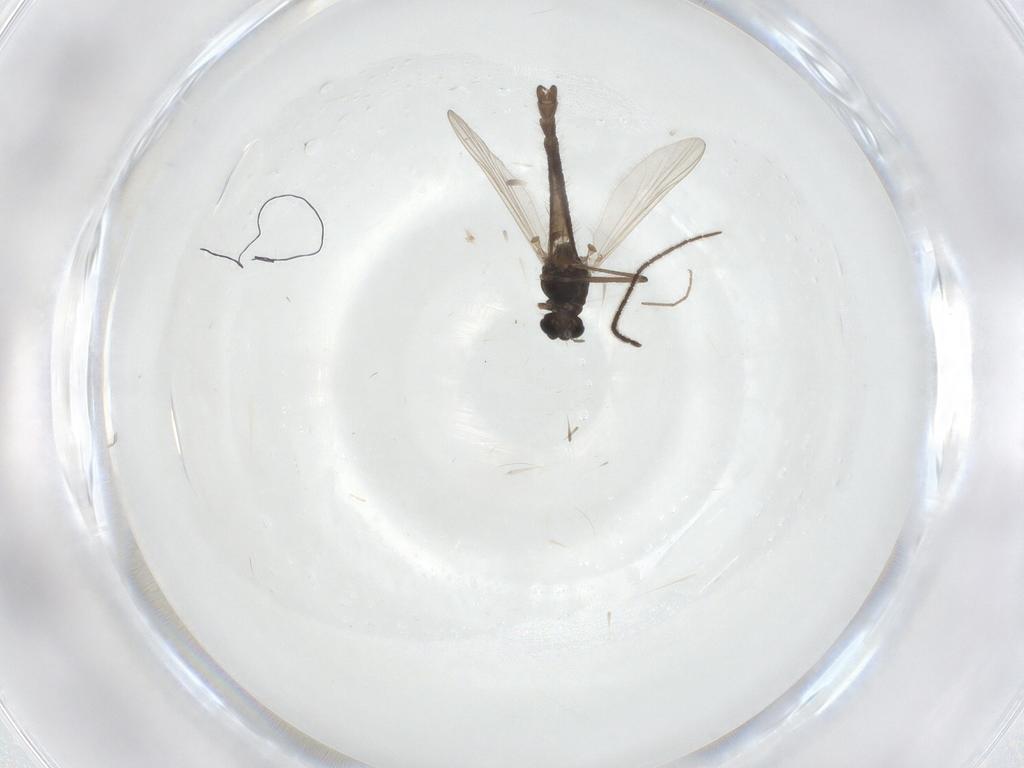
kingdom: Animalia
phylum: Arthropoda
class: Insecta
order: Diptera
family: Chironomidae
